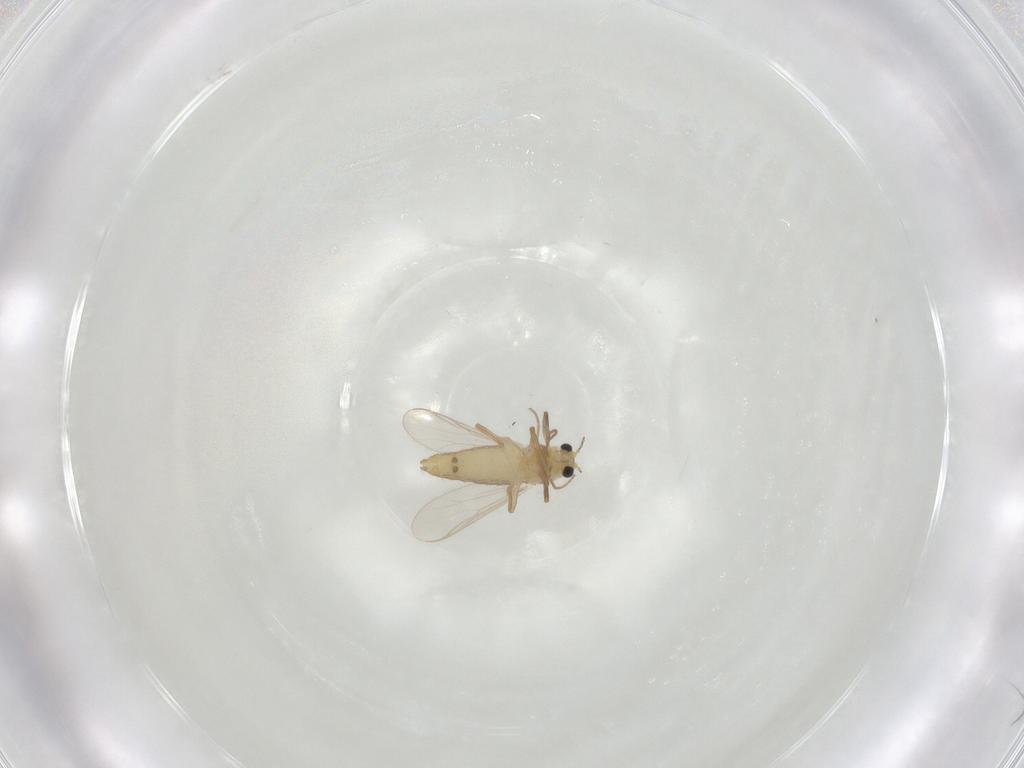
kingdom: Animalia
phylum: Arthropoda
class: Insecta
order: Diptera
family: Chironomidae
